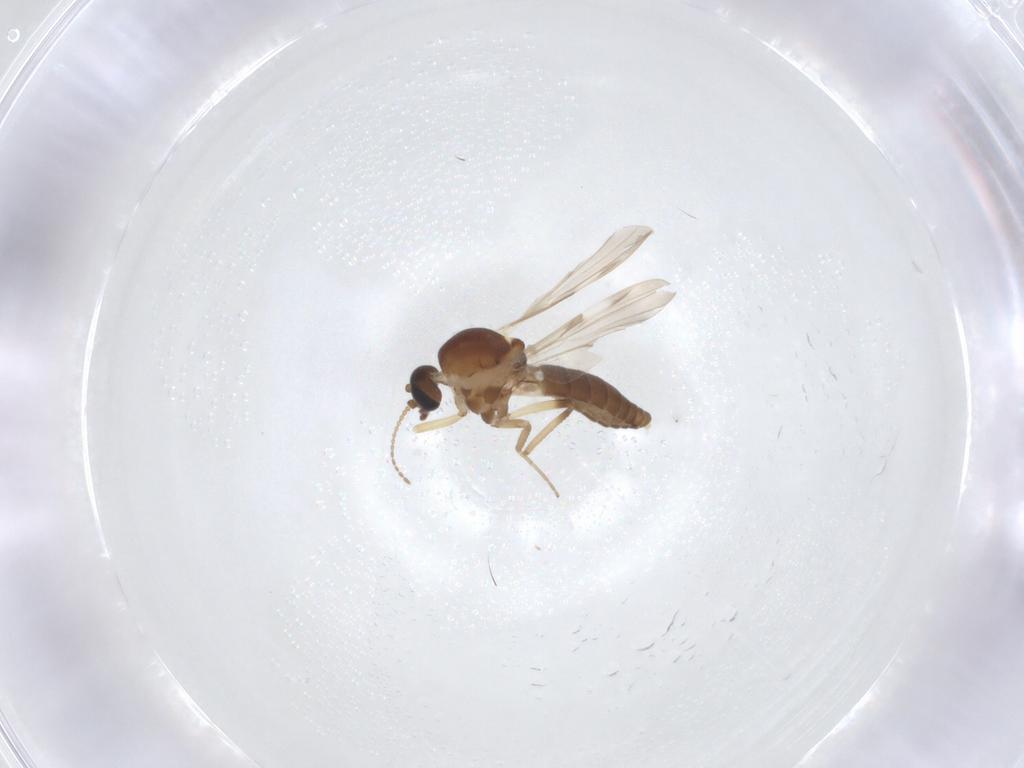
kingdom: Animalia
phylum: Arthropoda
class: Insecta
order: Diptera
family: Ceratopogonidae
